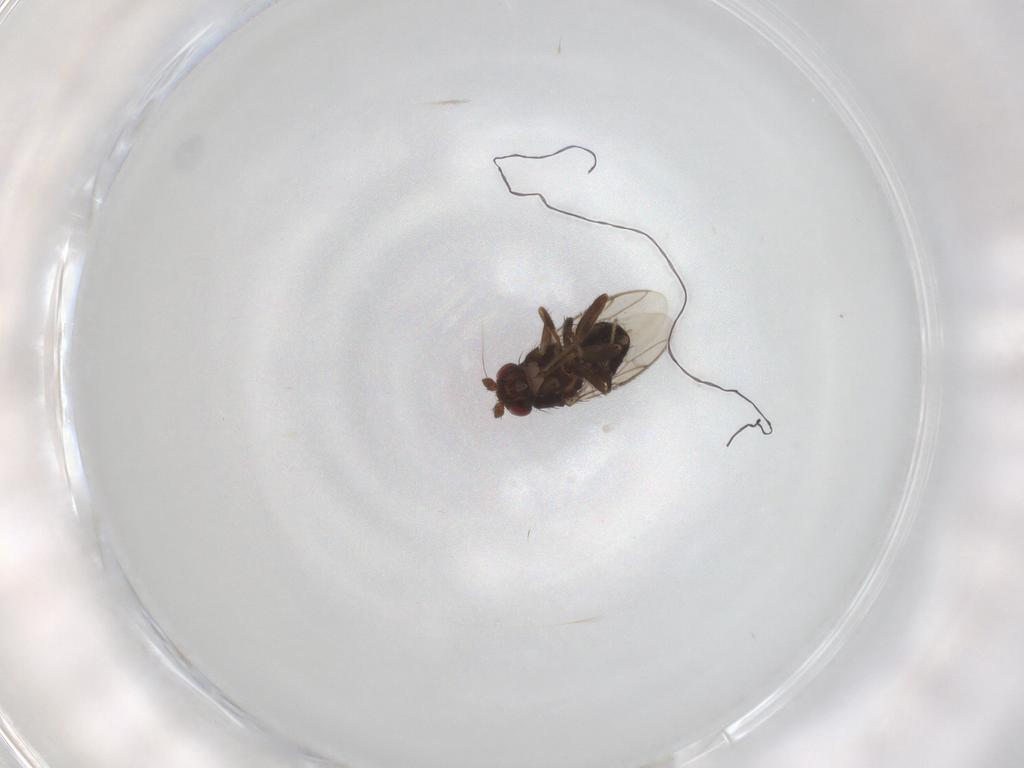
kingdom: Animalia
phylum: Arthropoda
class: Insecta
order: Diptera
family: Sphaeroceridae
